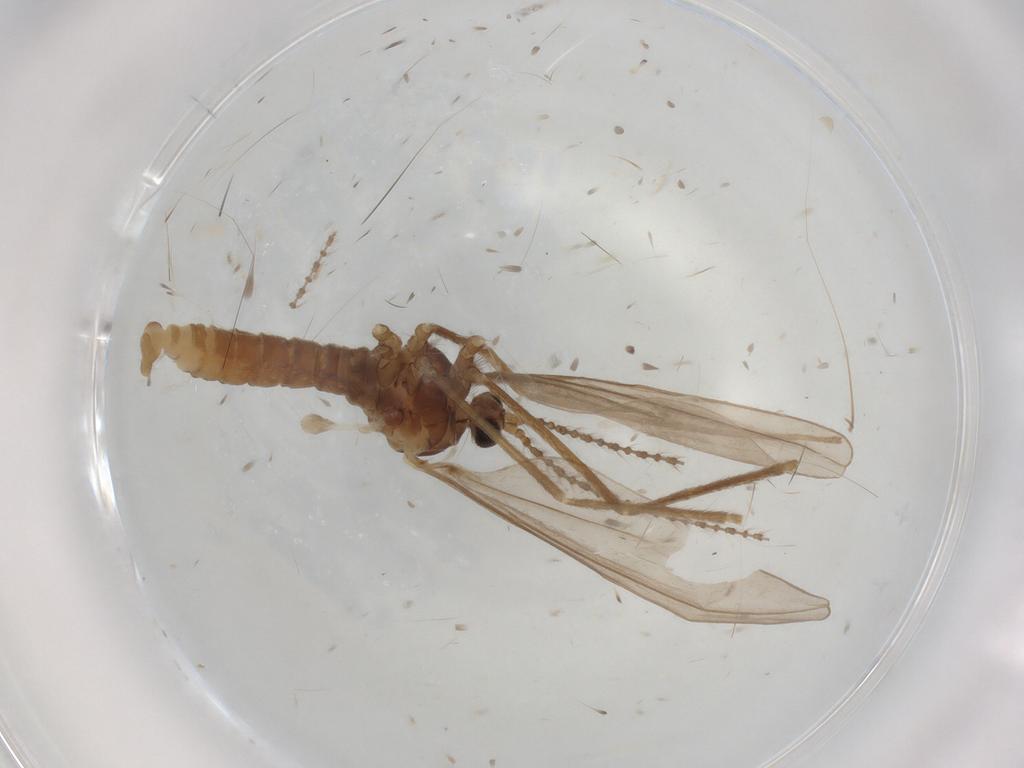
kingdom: Animalia
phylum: Arthropoda
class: Insecta
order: Diptera
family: Cecidomyiidae
